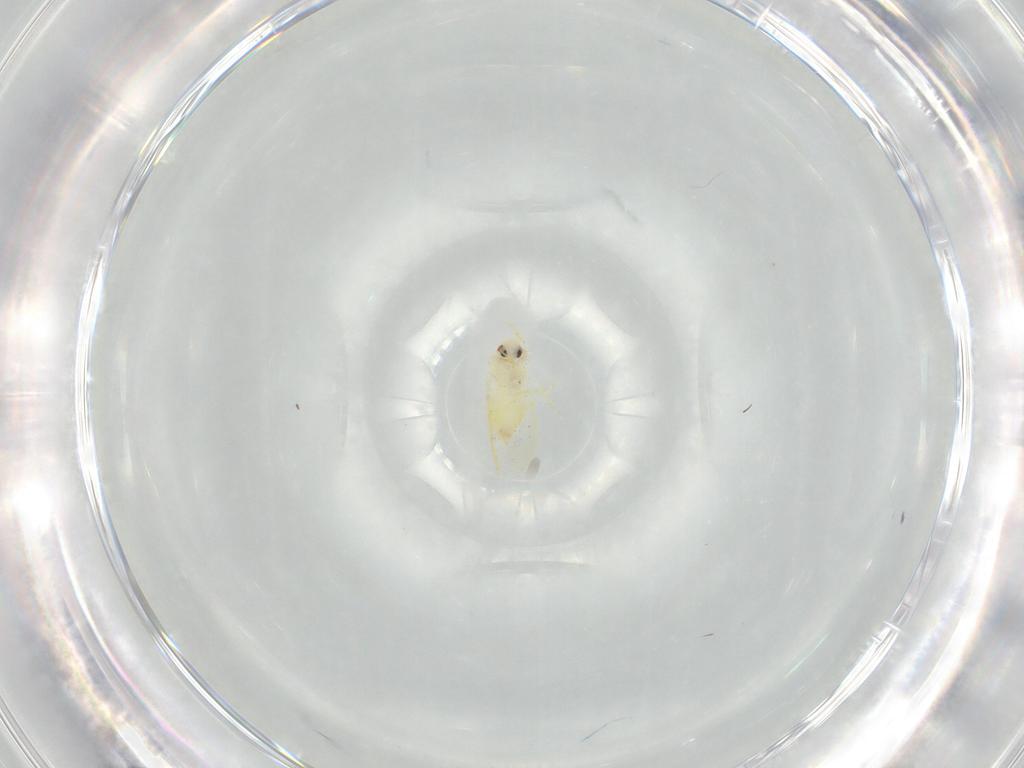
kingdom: Animalia
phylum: Arthropoda
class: Insecta
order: Hemiptera
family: Aleyrodidae
